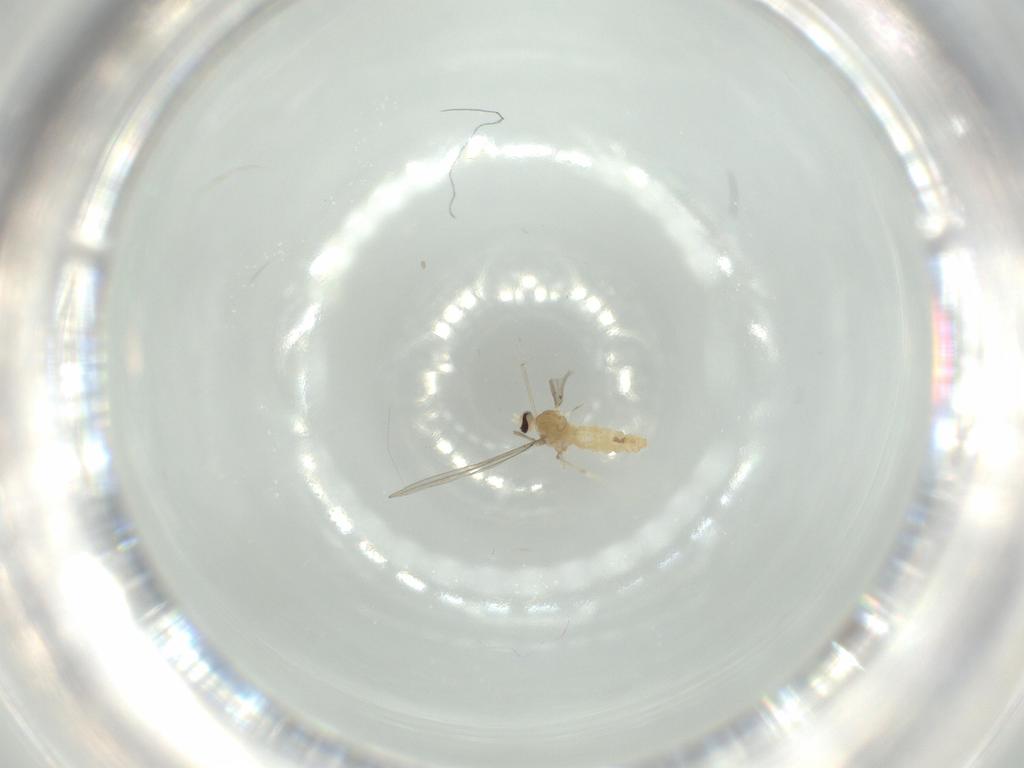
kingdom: Animalia
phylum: Arthropoda
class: Insecta
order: Diptera
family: Cecidomyiidae
